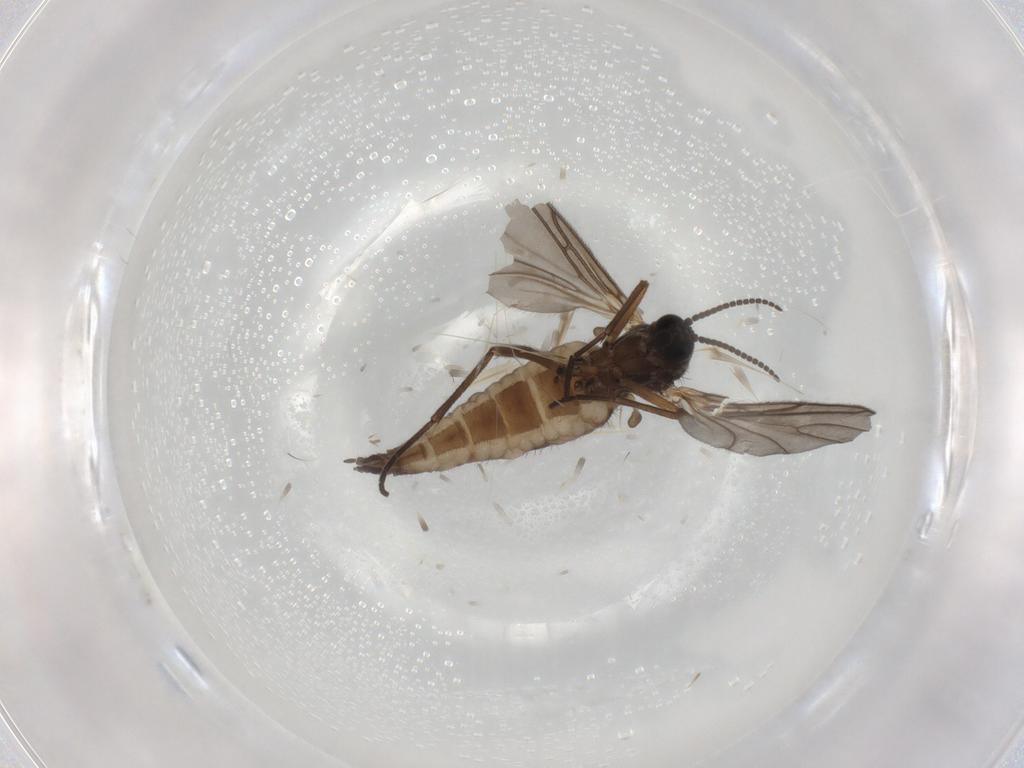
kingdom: Animalia
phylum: Arthropoda
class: Insecta
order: Diptera
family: Sciaridae
